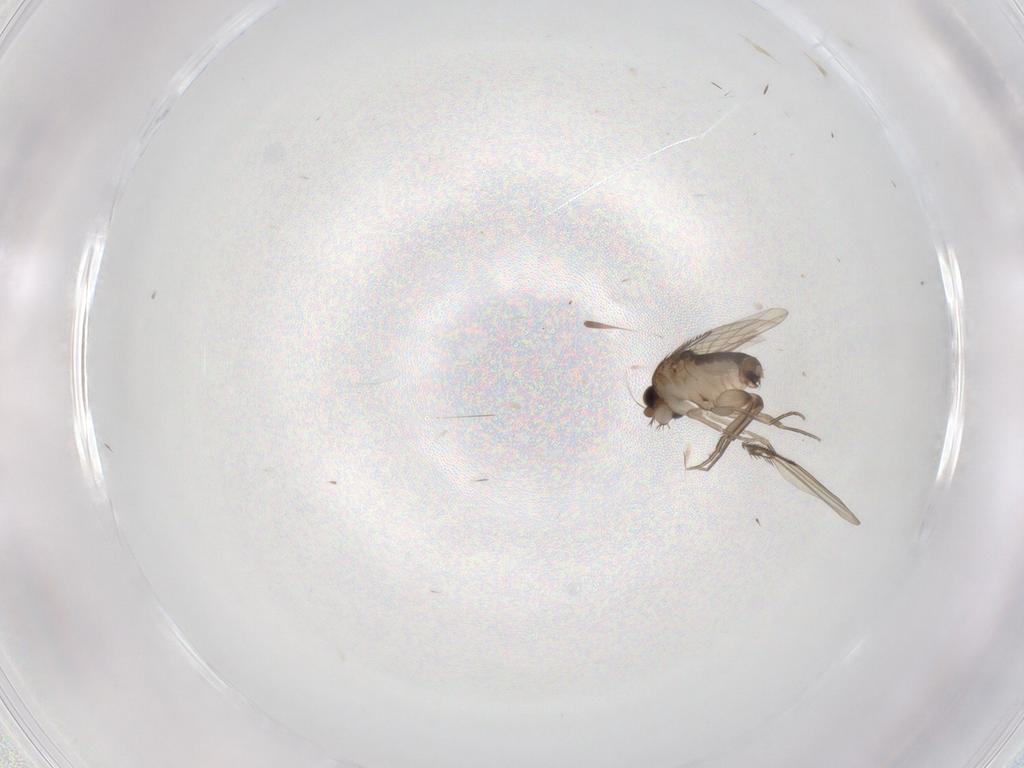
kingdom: Animalia
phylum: Arthropoda
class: Insecta
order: Diptera
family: Phoridae
